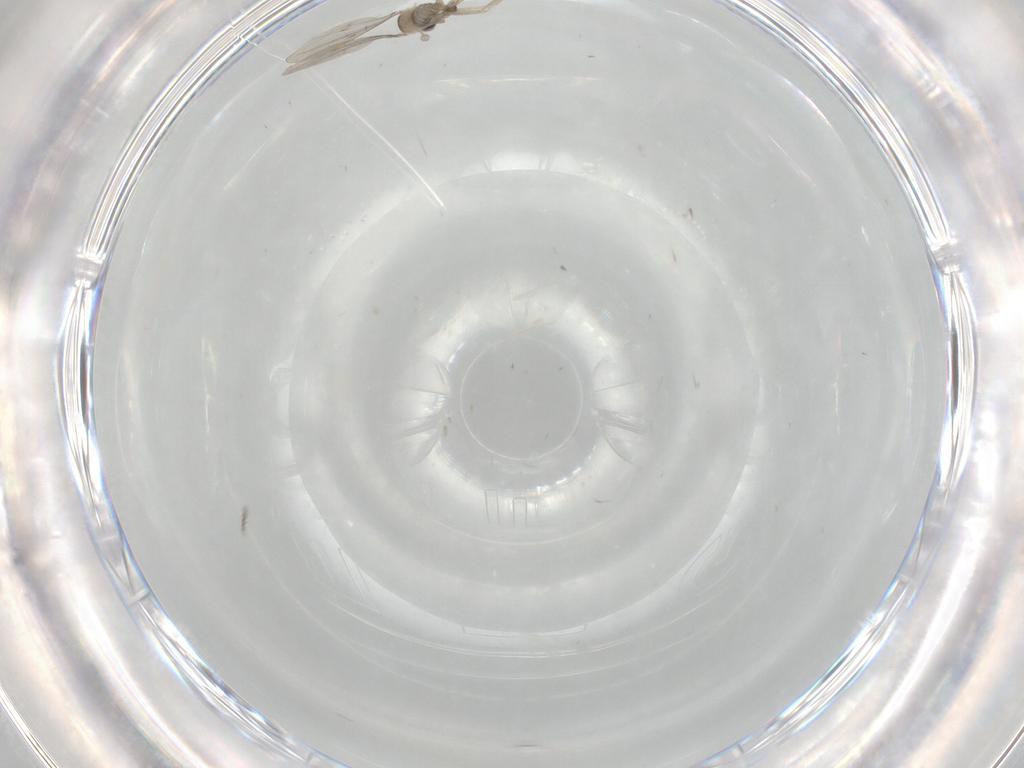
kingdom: Animalia
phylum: Arthropoda
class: Insecta
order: Diptera
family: Cecidomyiidae
